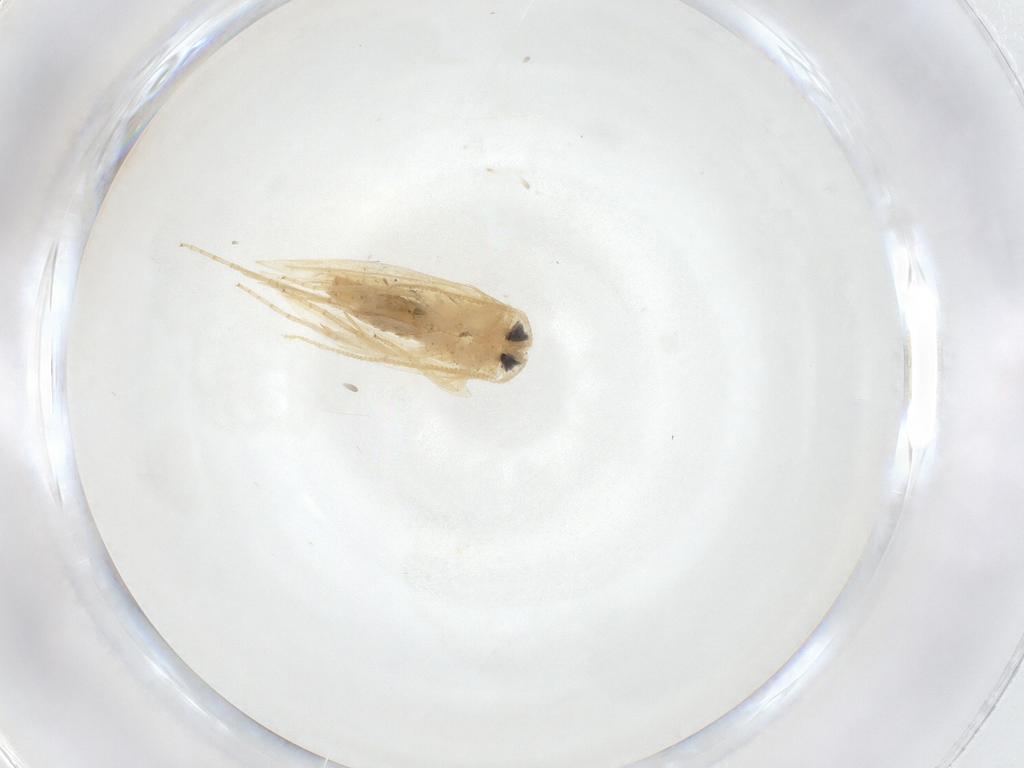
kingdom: Animalia
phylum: Arthropoda
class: Insecta
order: Lepidoptera
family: Opostegidae
